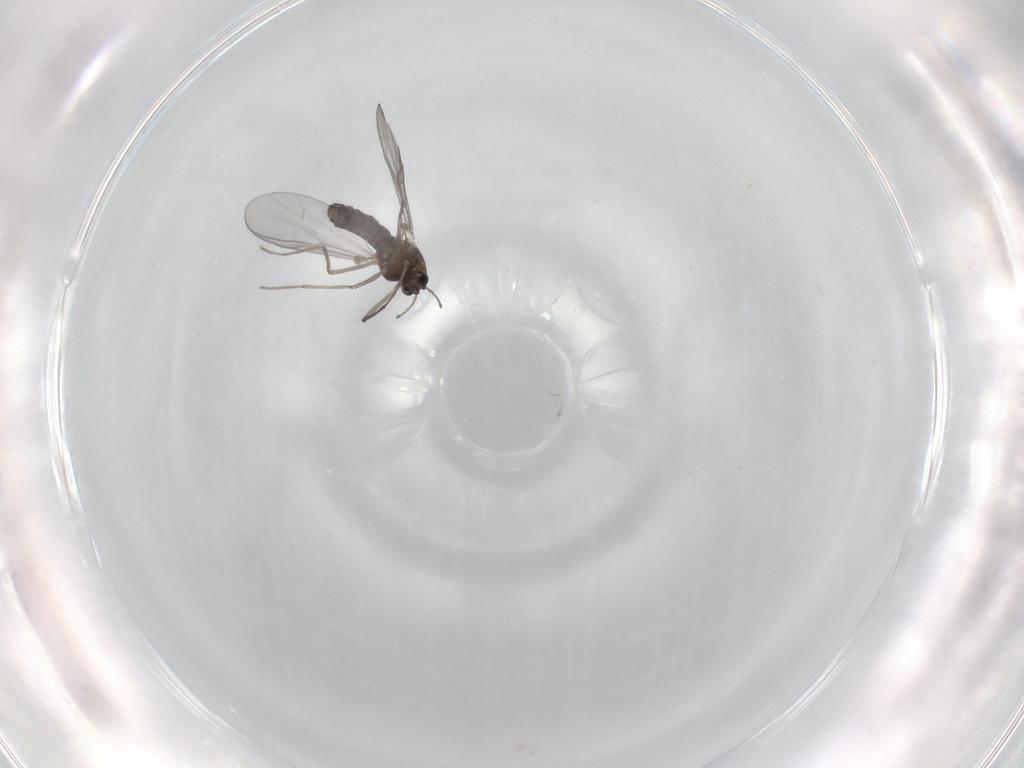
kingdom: Animalia
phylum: Arthropoda
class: Insecta
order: Diptera
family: Chironomidae
